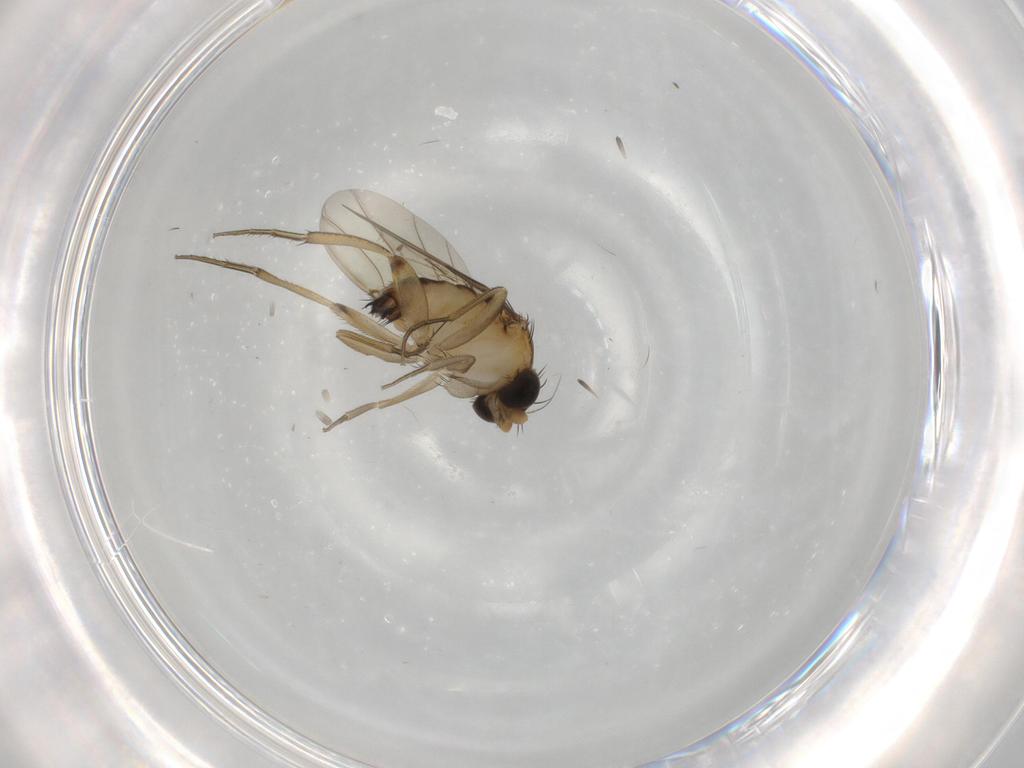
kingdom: Animalia
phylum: Arthropoda
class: Insecta
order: Diptera
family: Phoridae
